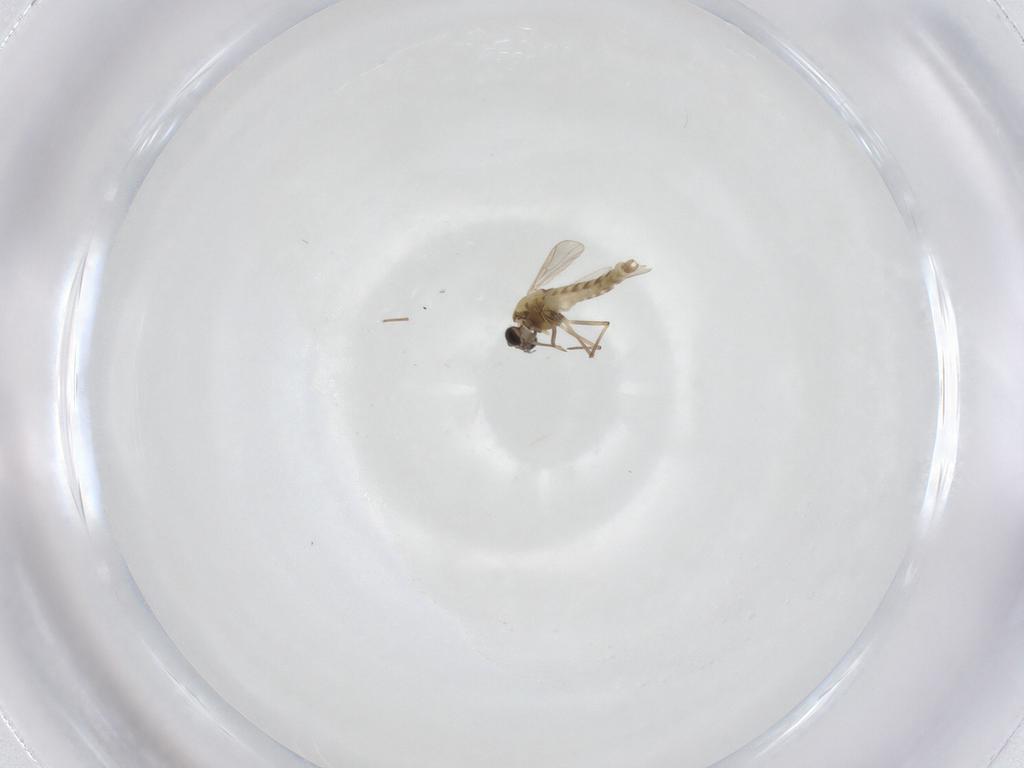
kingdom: Animalia
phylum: Arthropoda
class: Insecta
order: Diptera
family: Chironomidae
